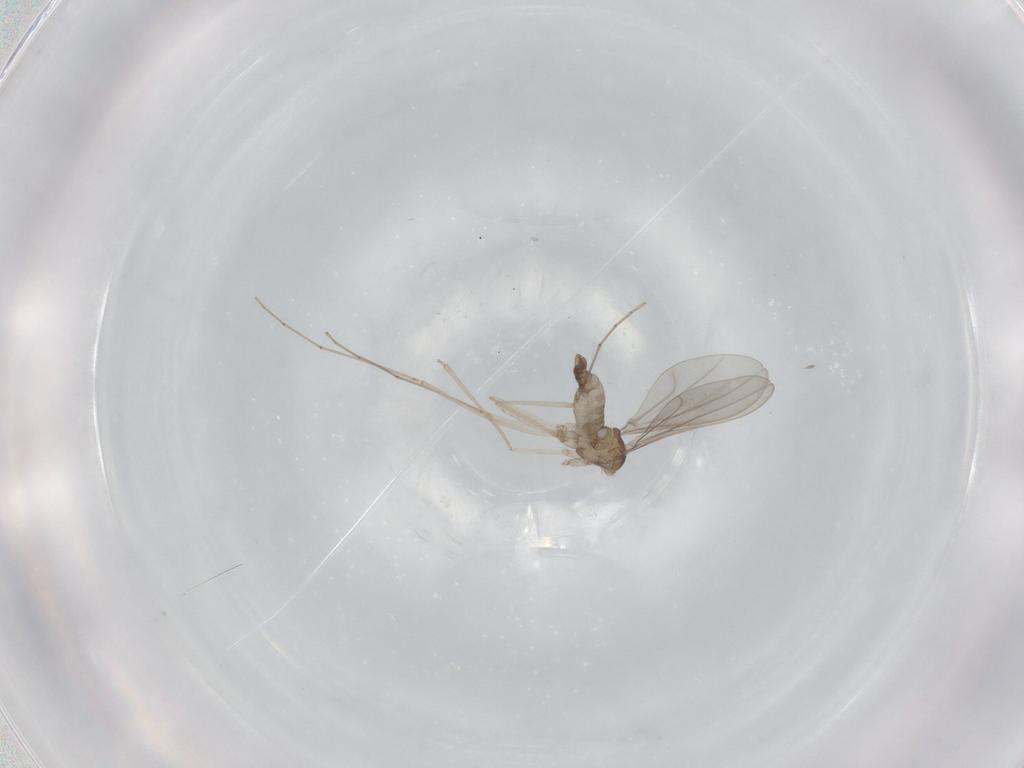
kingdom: Animalia
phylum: Arthropoda
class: Insecta
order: Diptera
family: Cecidomyiidae
